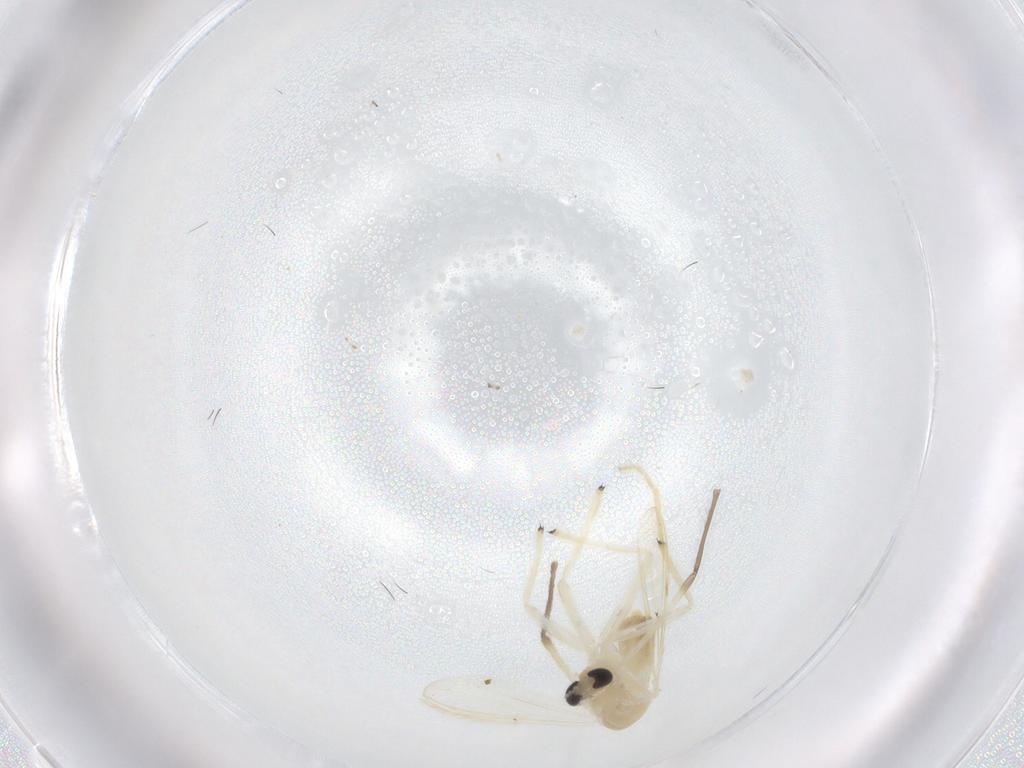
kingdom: Animalia
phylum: Arthropoda
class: Insecta
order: Diptera
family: Chironomidae
